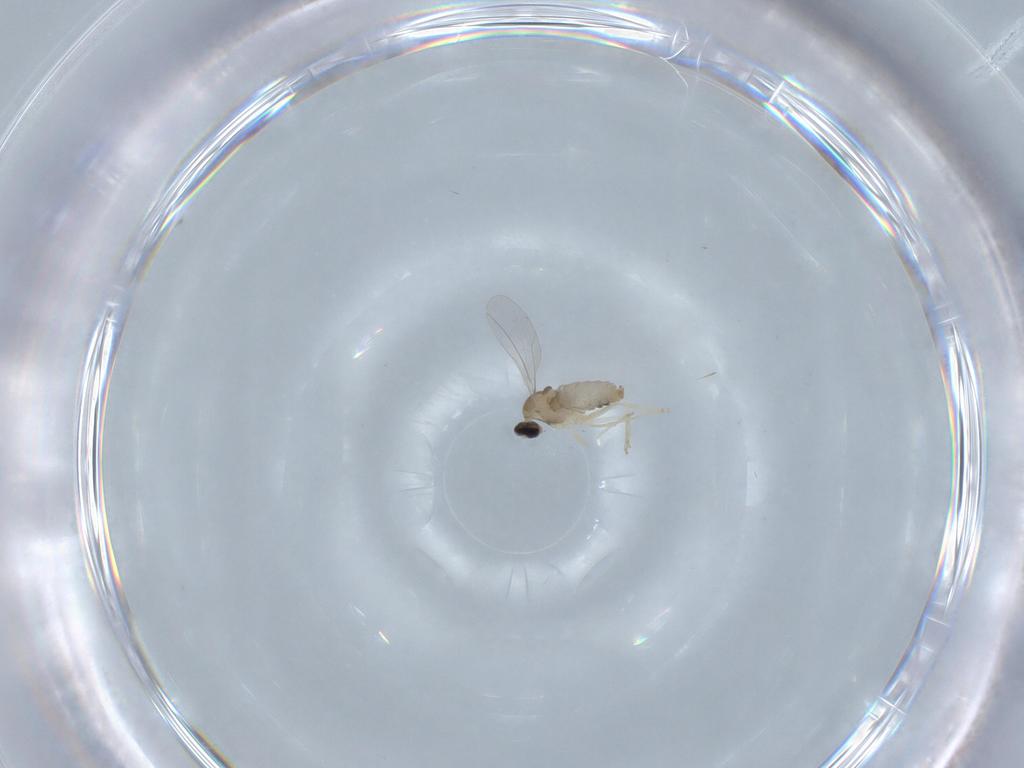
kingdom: Animalia
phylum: Arthropoda
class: Insecta
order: Diptera
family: Cecidomyiidae
